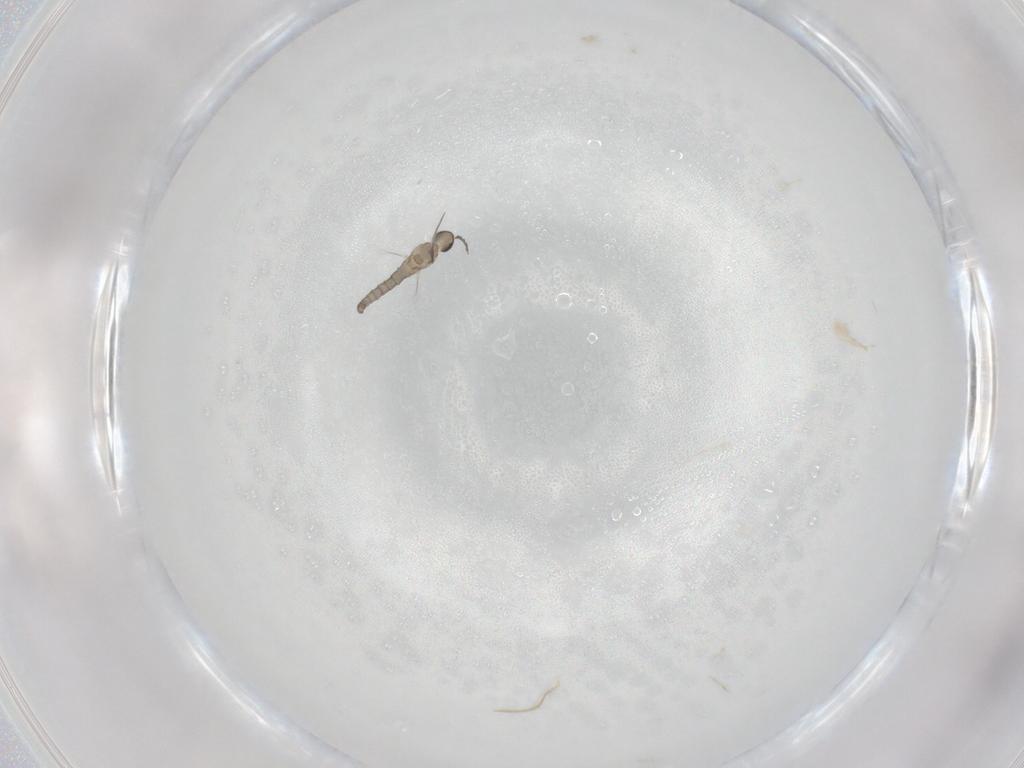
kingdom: Animalia
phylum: Arthropoda
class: Insecta
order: Diptera
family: Cecidomyiidae
